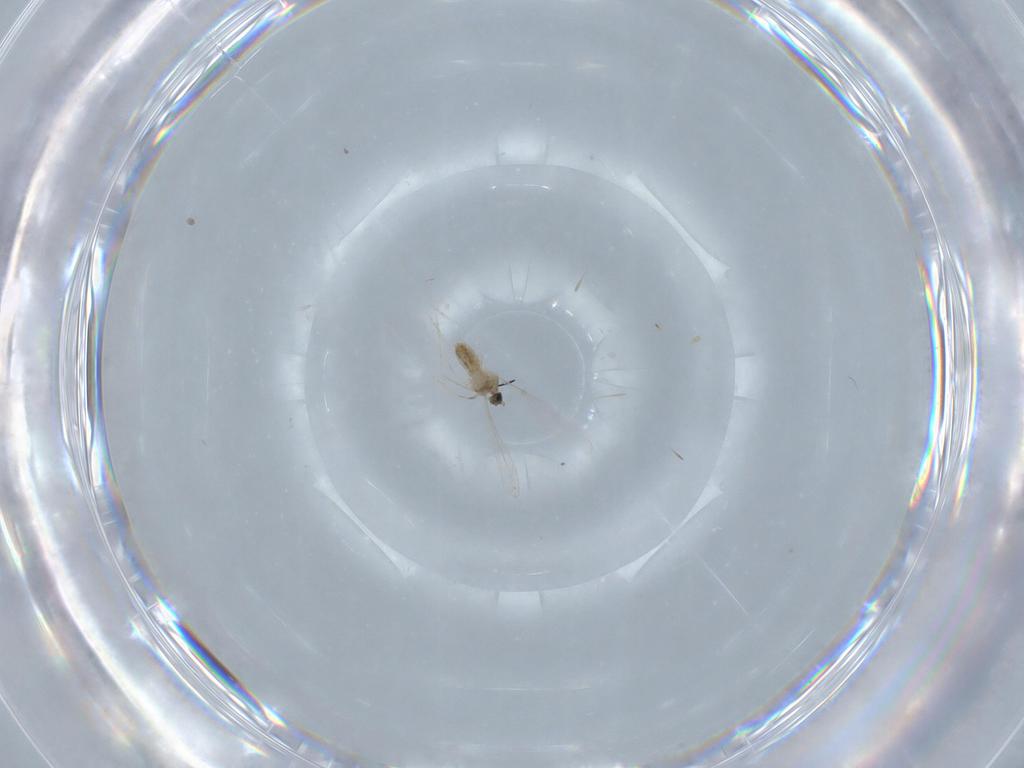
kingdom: Animalia
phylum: Arthropoda
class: Insecta
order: Diptera
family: Cecidomyiidae
